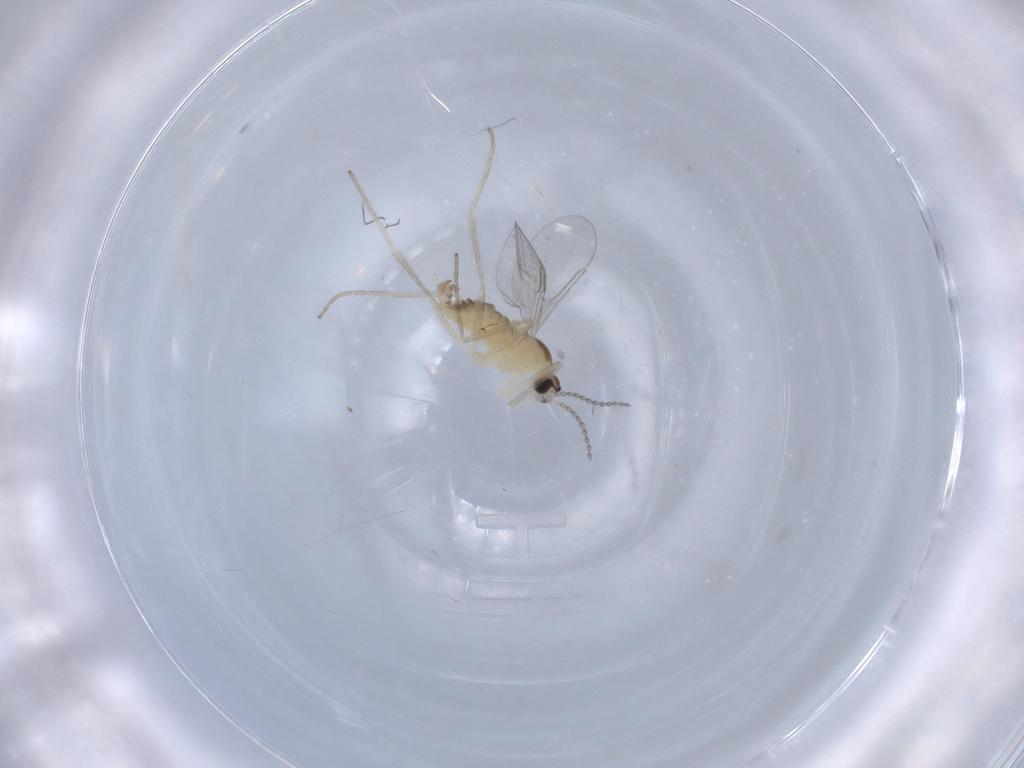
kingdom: Animalia
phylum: Arthropoda
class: Insecta
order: Diptera
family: Cecidomyiidae
